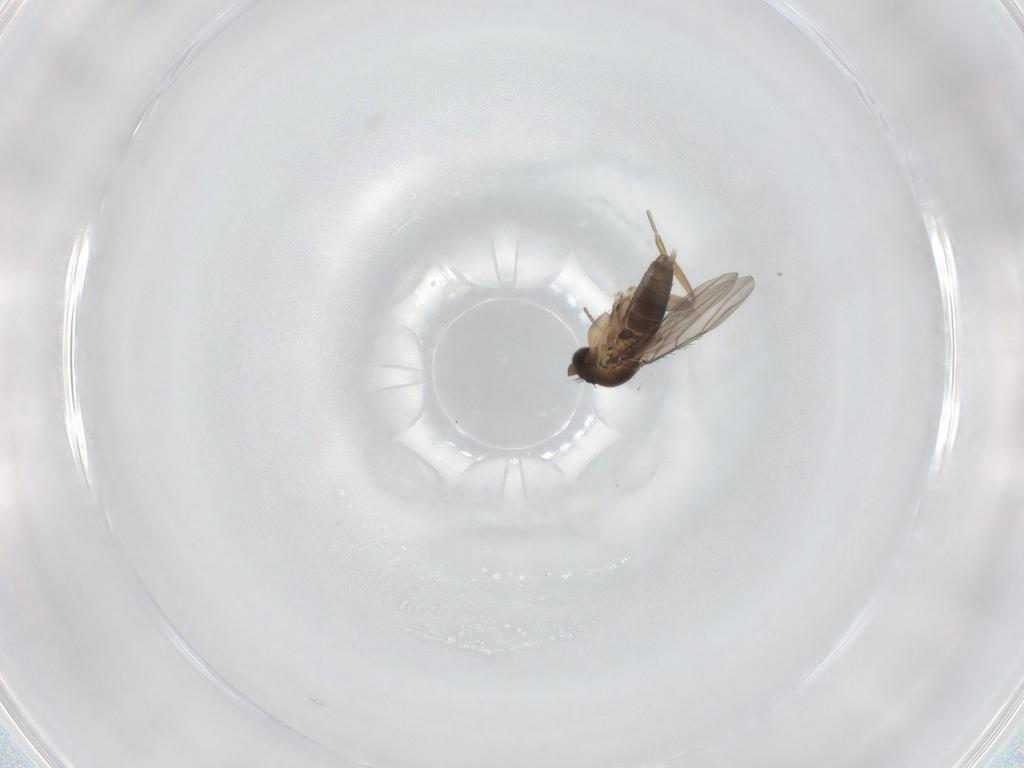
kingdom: Animalia
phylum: Arthropoda
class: Insecta
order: Diptera
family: Phoridae
